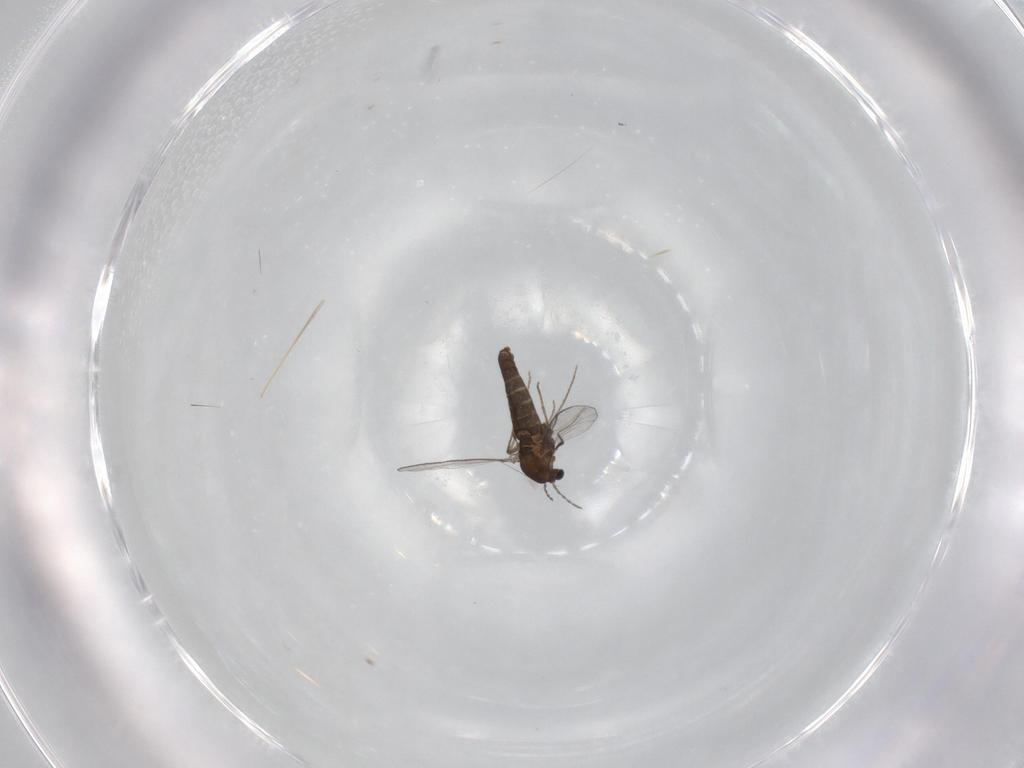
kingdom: Animalia
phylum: Arthropoda
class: Insecta
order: Diptera
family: Chironomidae
